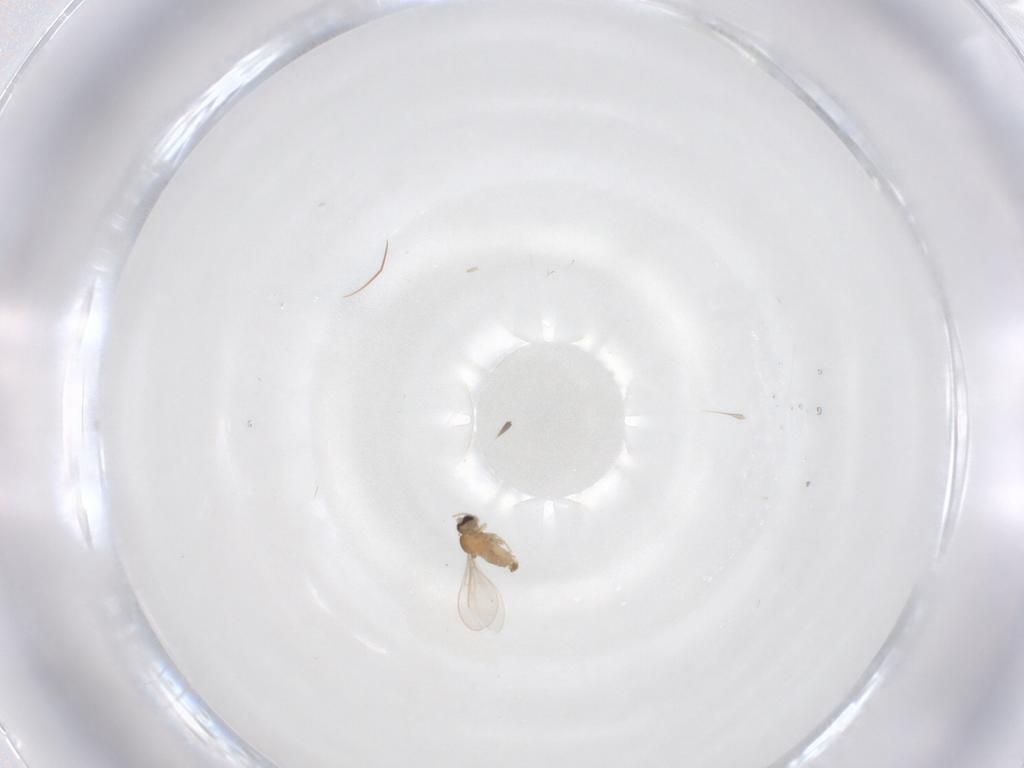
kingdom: Animalia
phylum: Arthropoda
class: Insecta
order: Diptera
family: Cecidomyiidae
